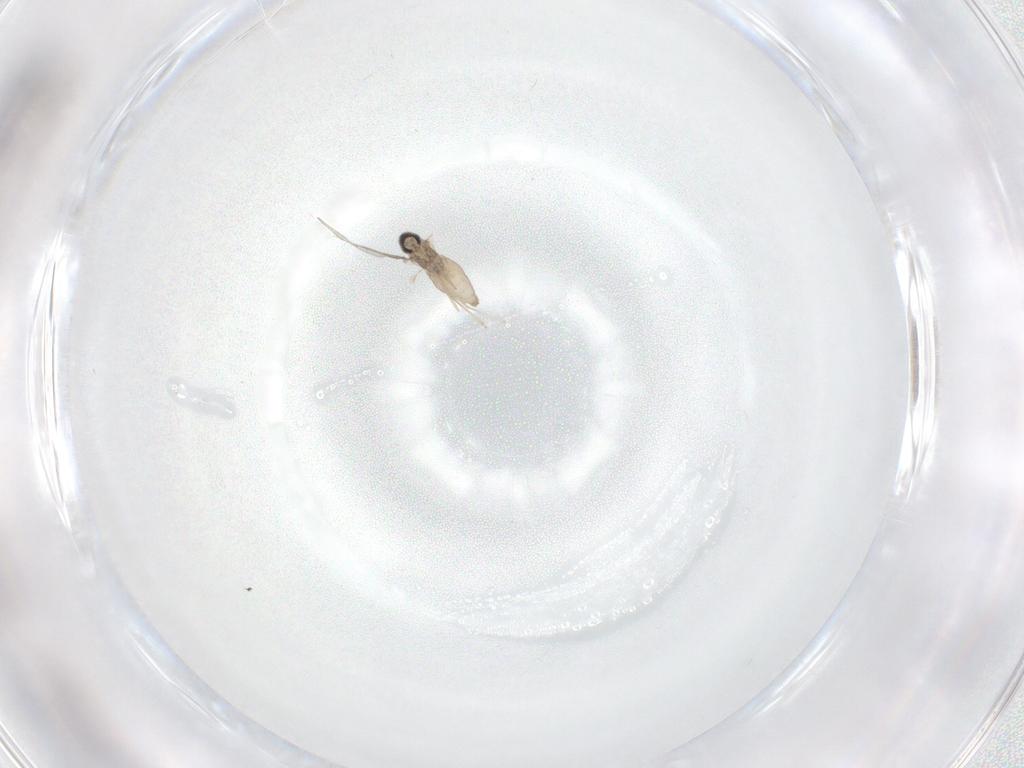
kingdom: Animalia
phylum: Arthropoda
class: Insecta
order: Diptera
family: Cecidomyiidae
